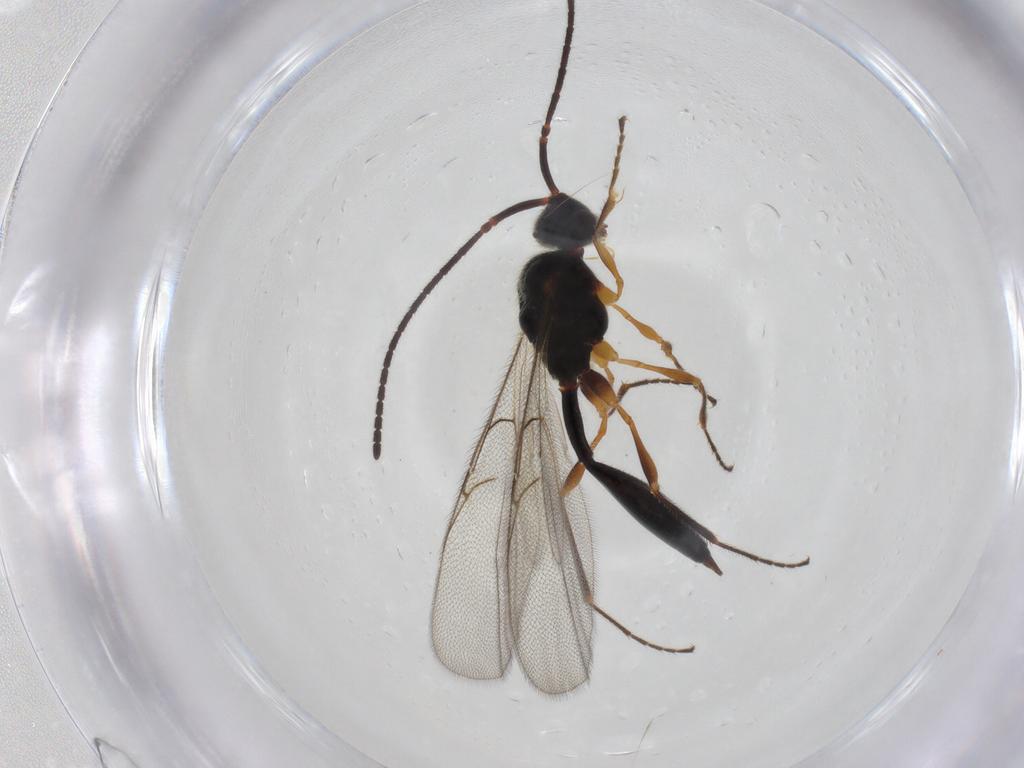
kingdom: Animalia
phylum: Arthropoda
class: Insecta
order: Hymenoptera
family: Diapriidae
